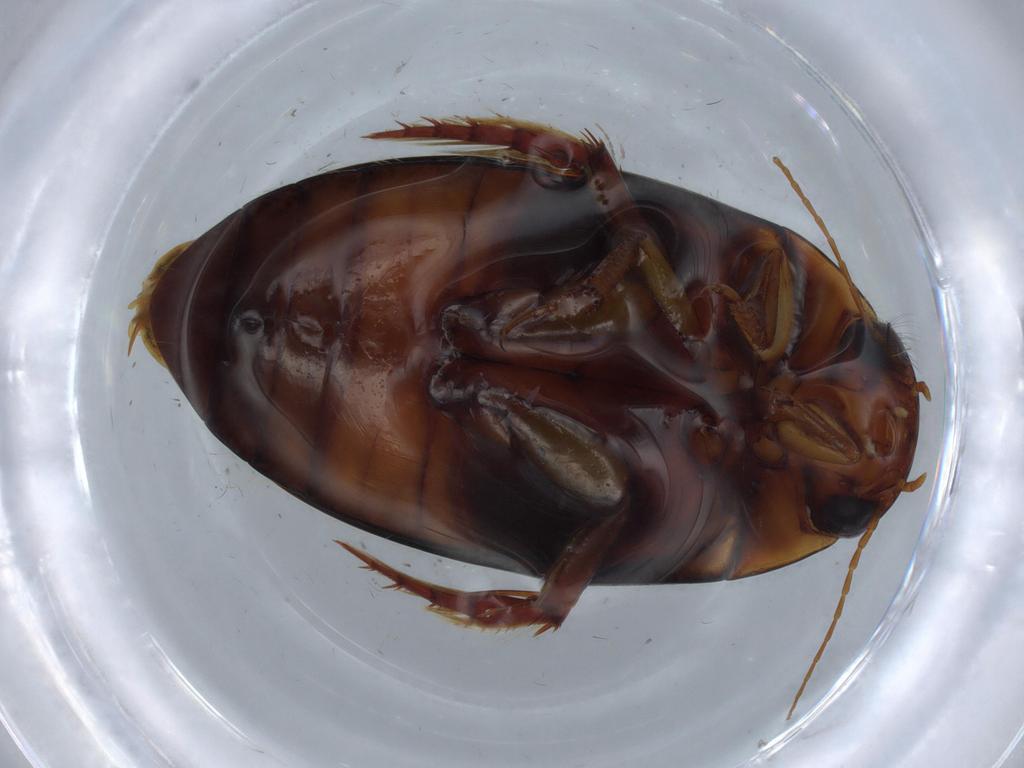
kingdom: Animalia
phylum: Arthropoda
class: Insecta
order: Coleoptera
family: Dytiscidae
